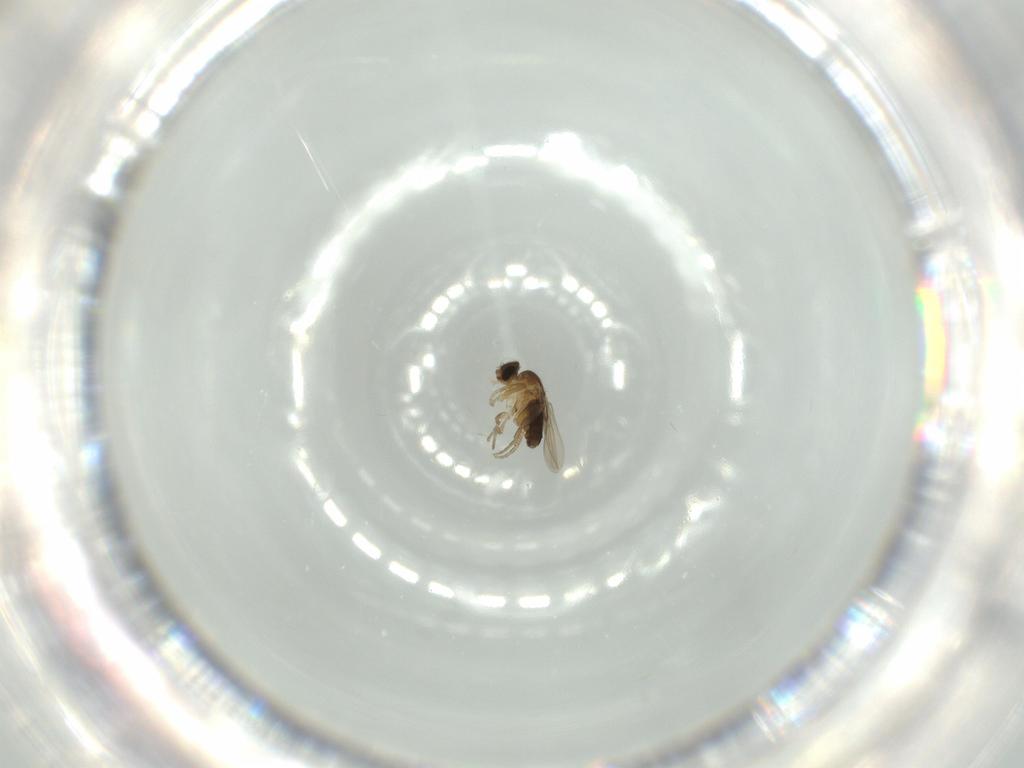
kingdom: Animalia
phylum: Arthropoda
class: Insecta
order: Diptera
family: Phoridae
